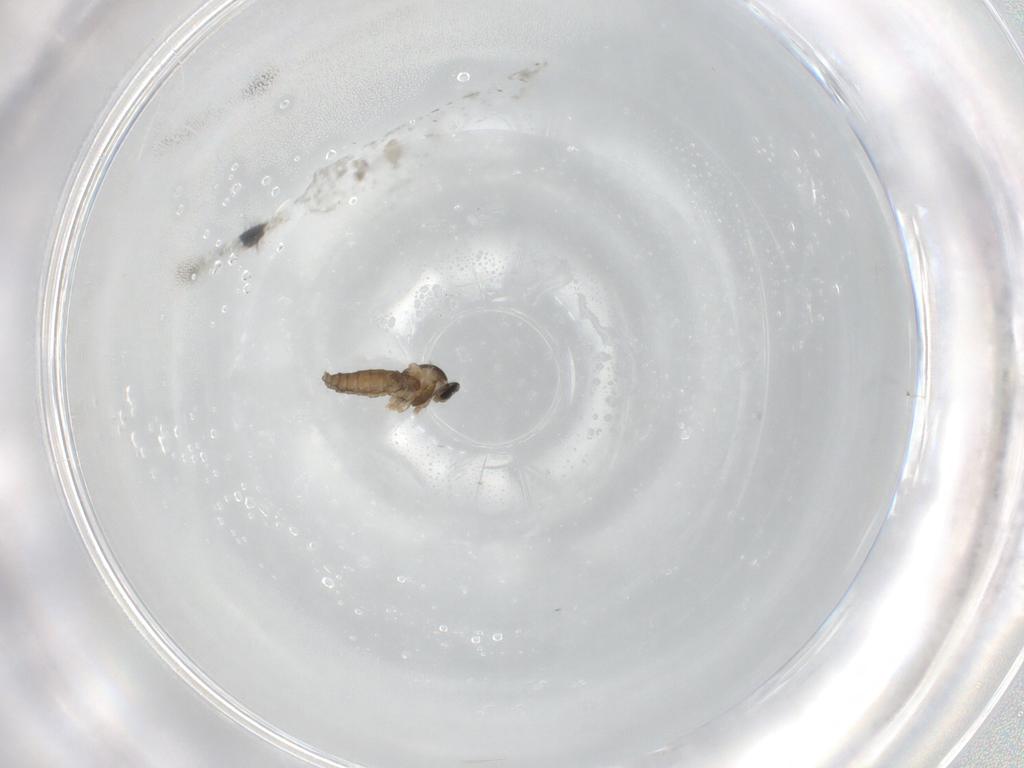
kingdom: Animalia
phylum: Arthropoda
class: Insecta
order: Diptera
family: Cecidomyiidae
